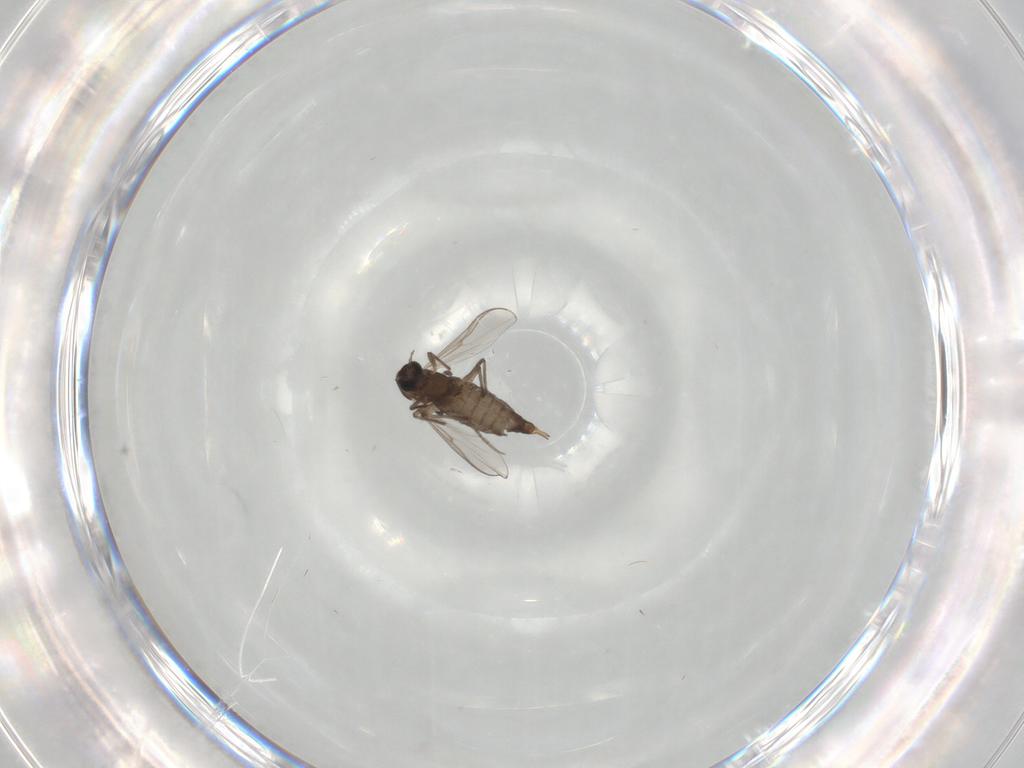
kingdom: Animalia
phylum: Arthropoda
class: Insecta
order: Diptera
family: Chironomidae
